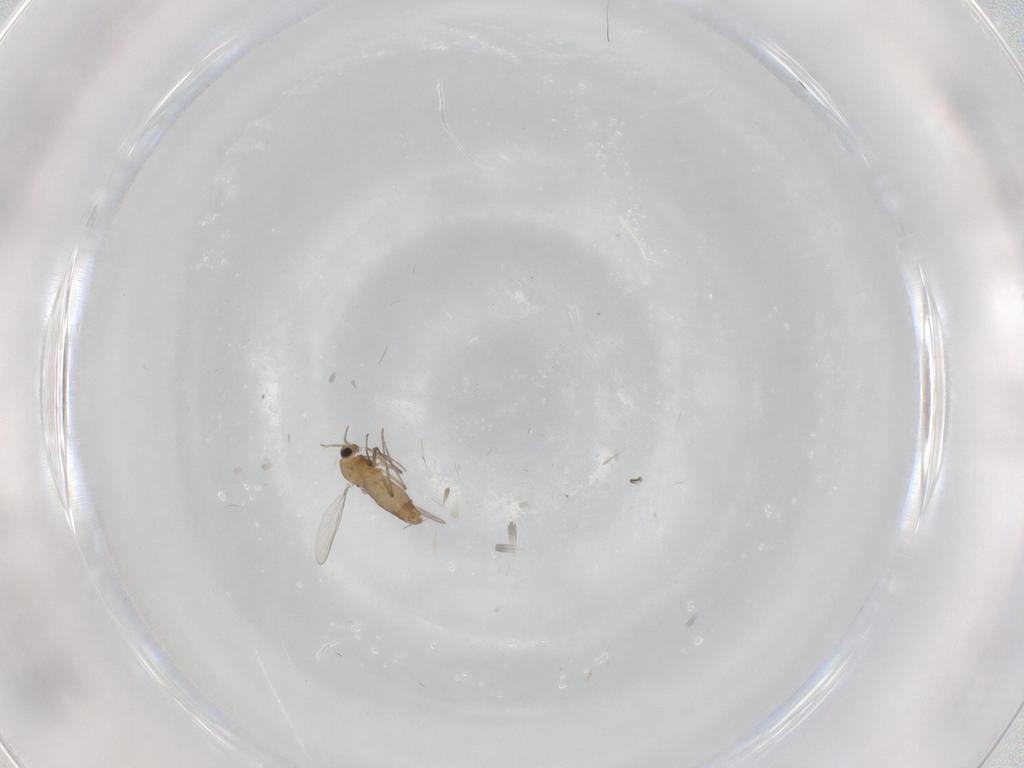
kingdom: Animalia
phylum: Arthropoda
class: Insecta
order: Diptera
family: Chironomidae
